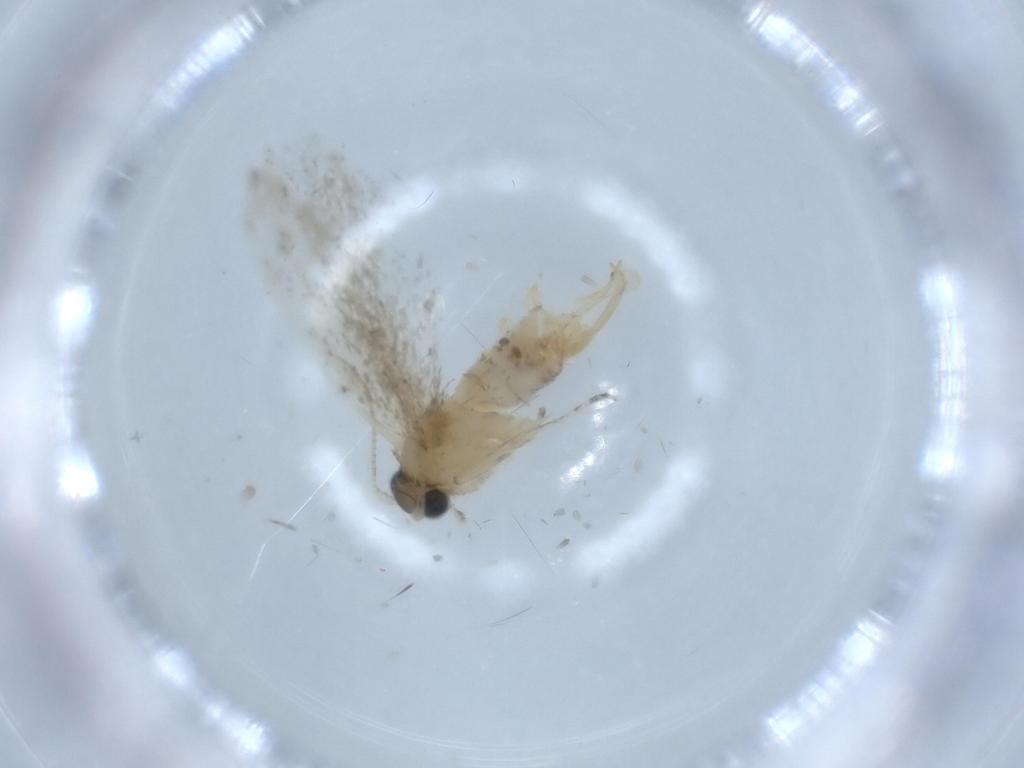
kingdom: Animalia
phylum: Arthropoda
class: Insecta
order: Lepidoptera
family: Tineidae
